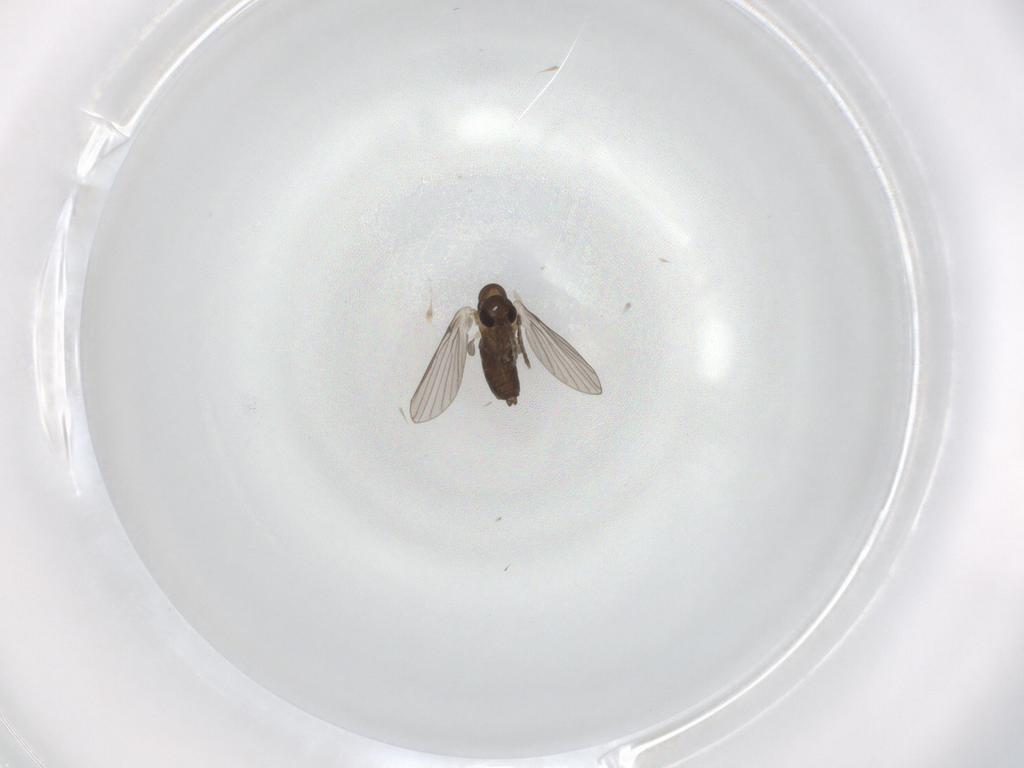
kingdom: Animalia
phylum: Arthropoda
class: Insecta
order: Diptera
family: Cecidomyiidae
